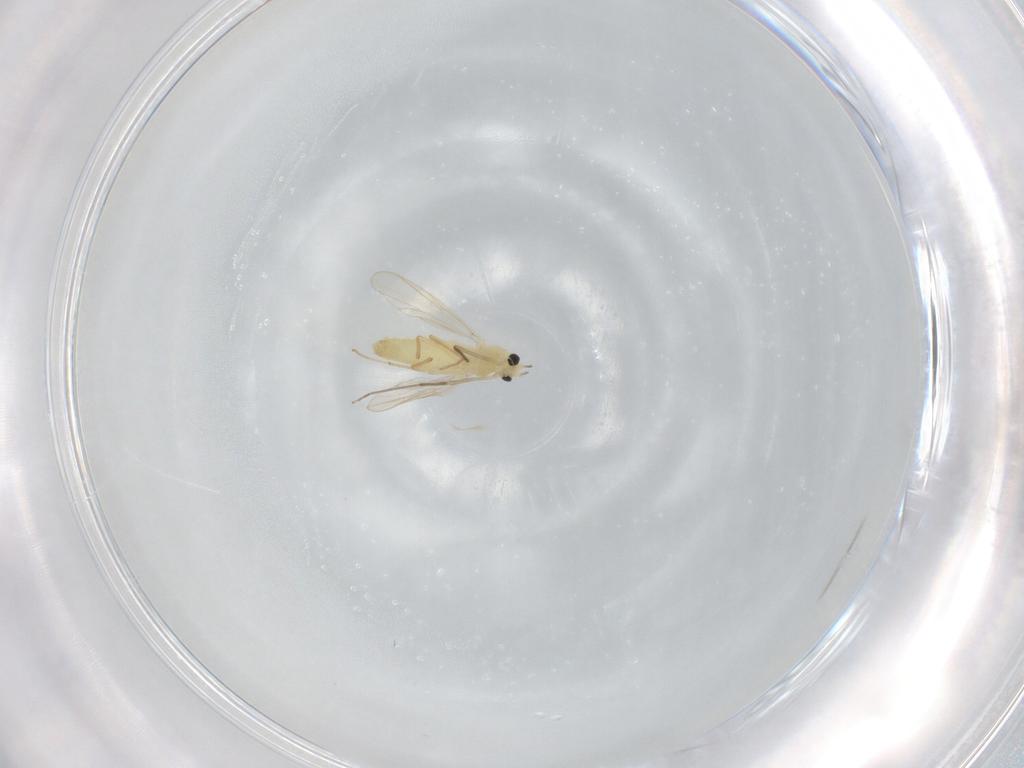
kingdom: Animalia
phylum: Arthropoda
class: Insecta
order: Diptera
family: Chironomidae
